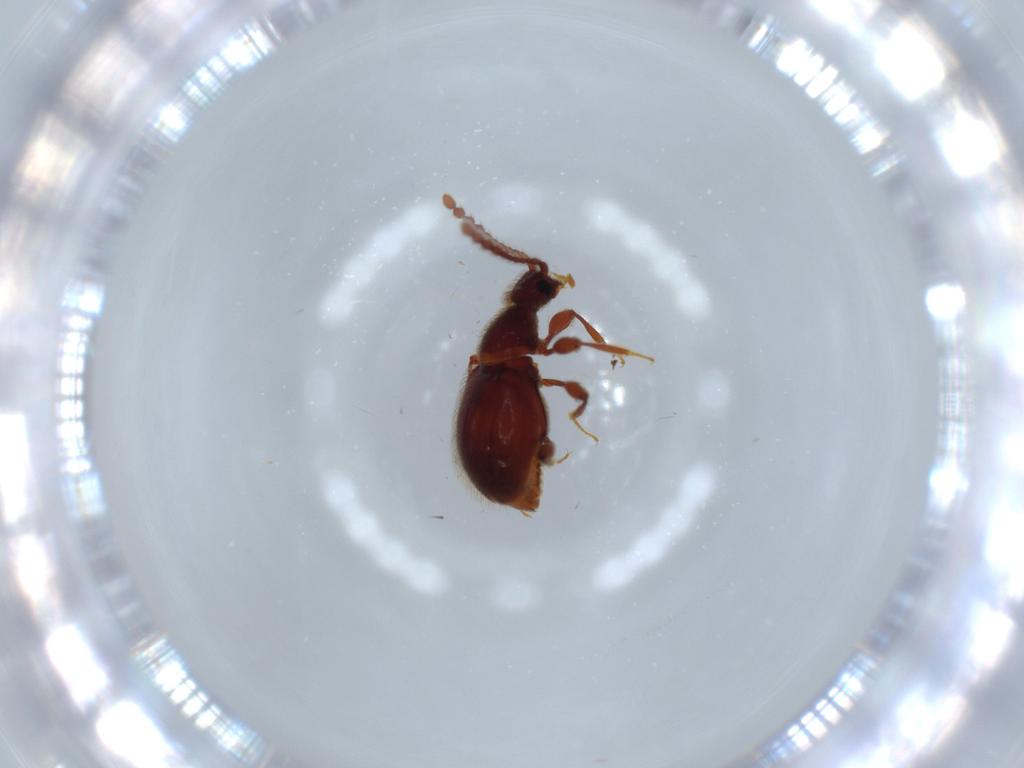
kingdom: Animalia
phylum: Arthropoda
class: Insecta
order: Coleoptera
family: Staphylinidae
